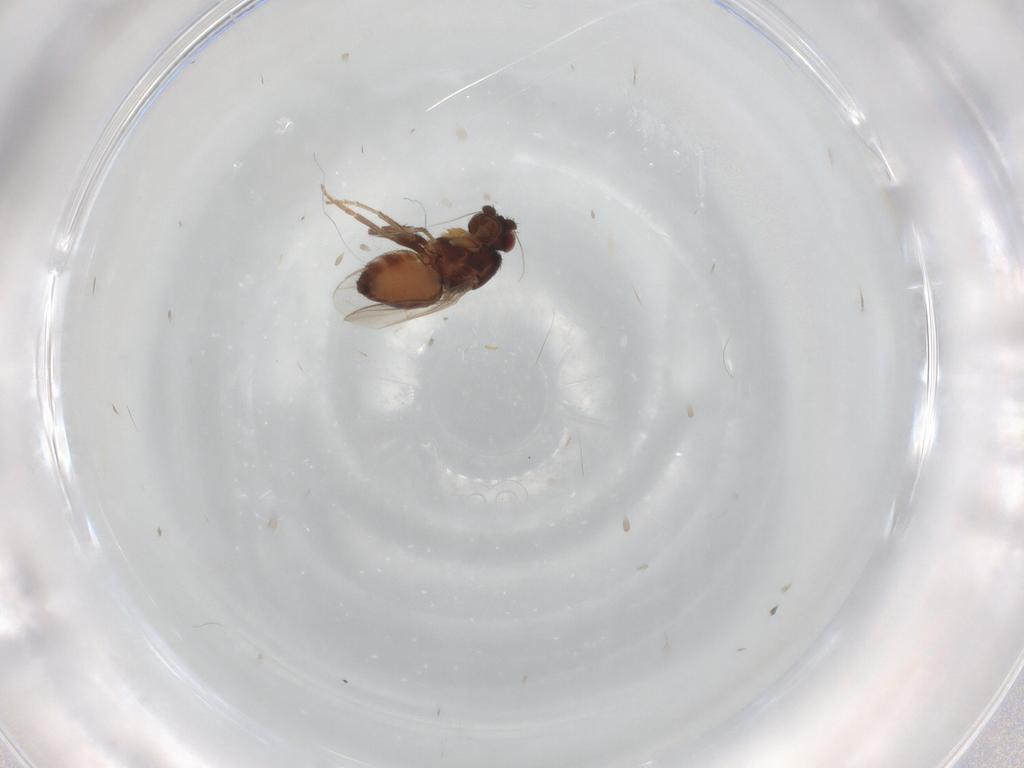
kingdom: Animalia
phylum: Arthropoda
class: Insecta
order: Diptera
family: Sphaeroceridae
